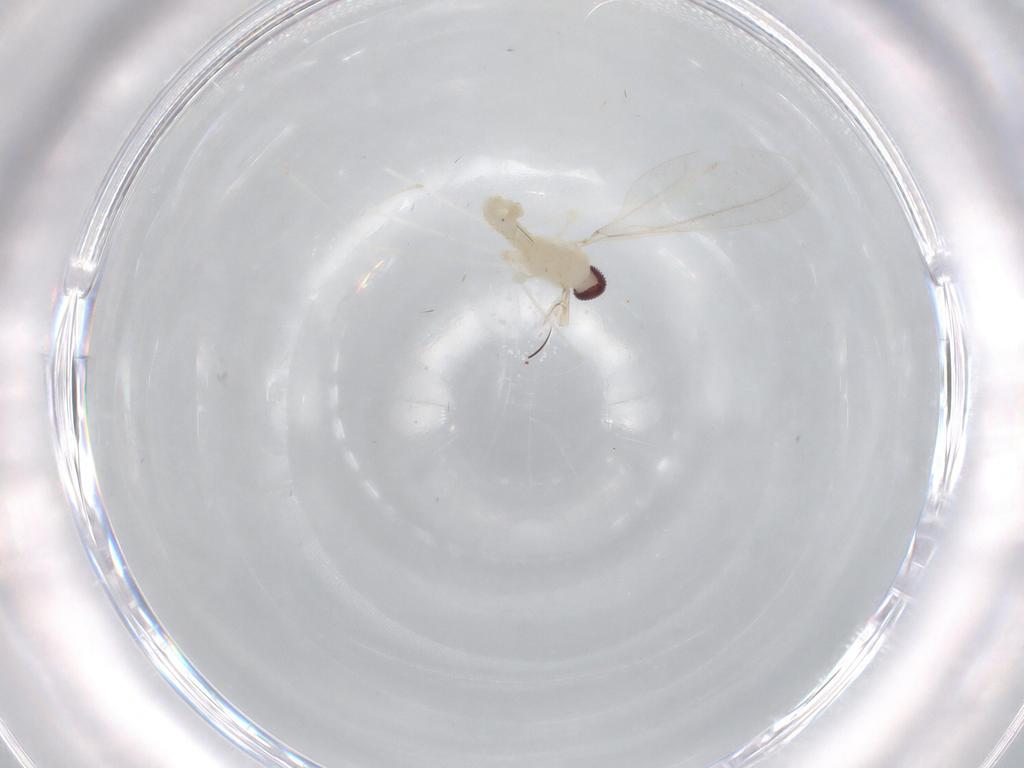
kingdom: Animalia
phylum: Arthropoda
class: Insecta
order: Diptera
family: Cecidomyiidae
